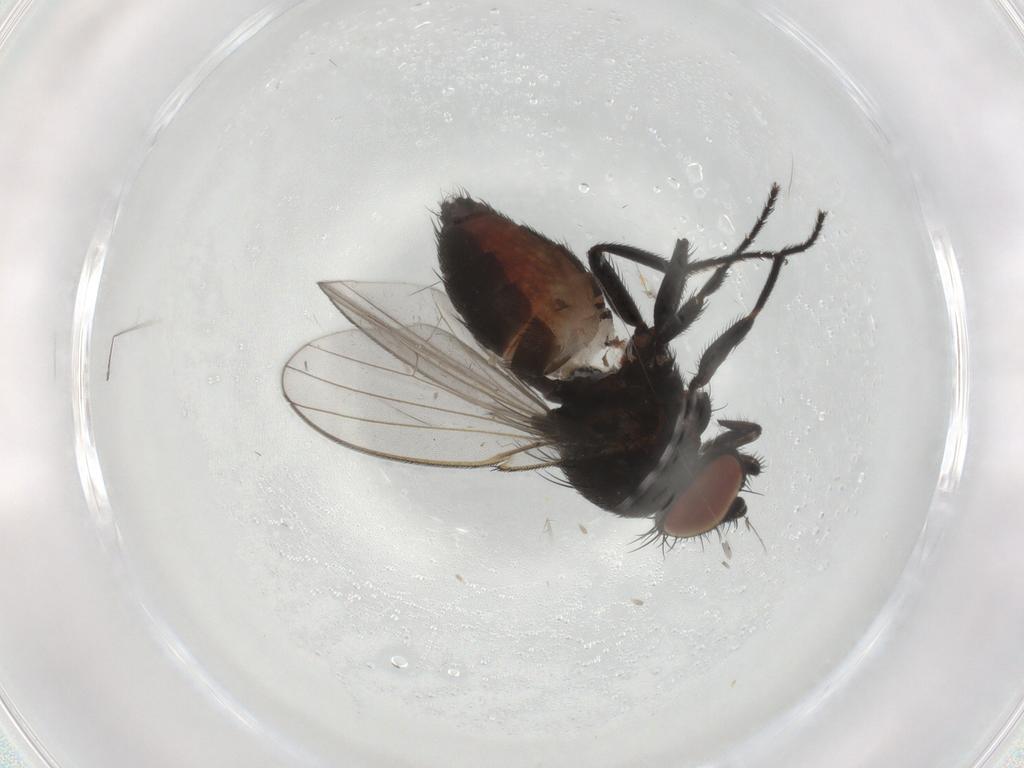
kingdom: Animalia
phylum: Arthropoda
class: Insecta
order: Diptera
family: Milichiidae
